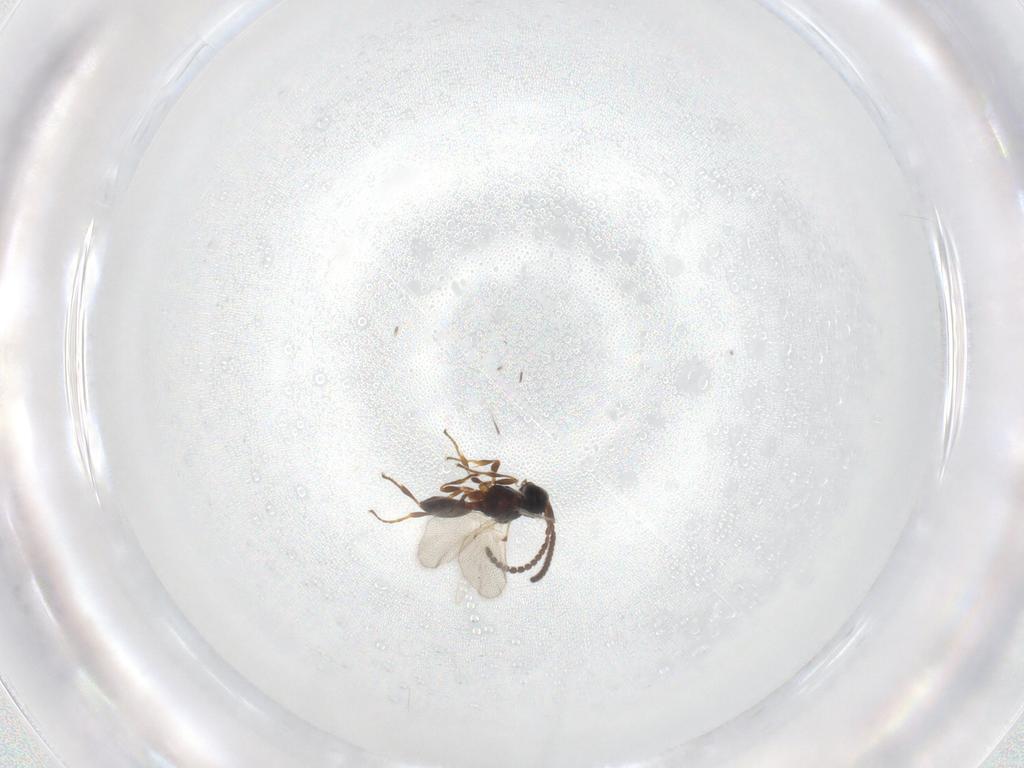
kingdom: Animalia
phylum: Arthropoda
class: Insecta
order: Hymenoptera
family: Diapriidae
